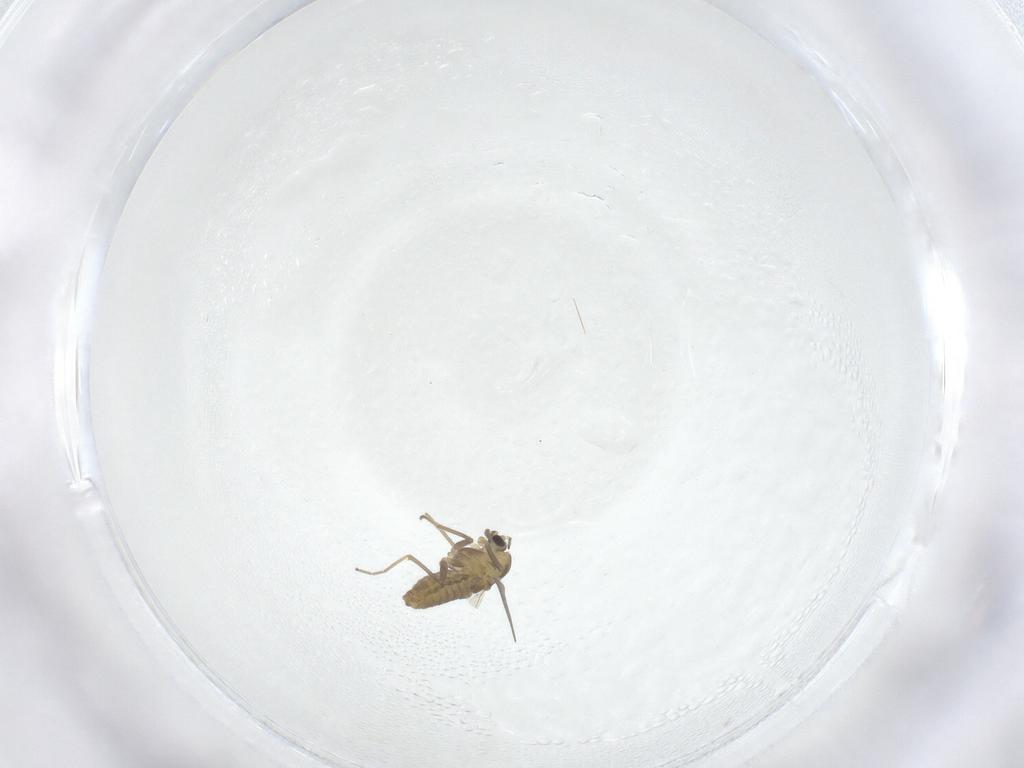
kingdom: Animalia
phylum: Arthropoda
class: Insecta
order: Diptera
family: Chironomidae
